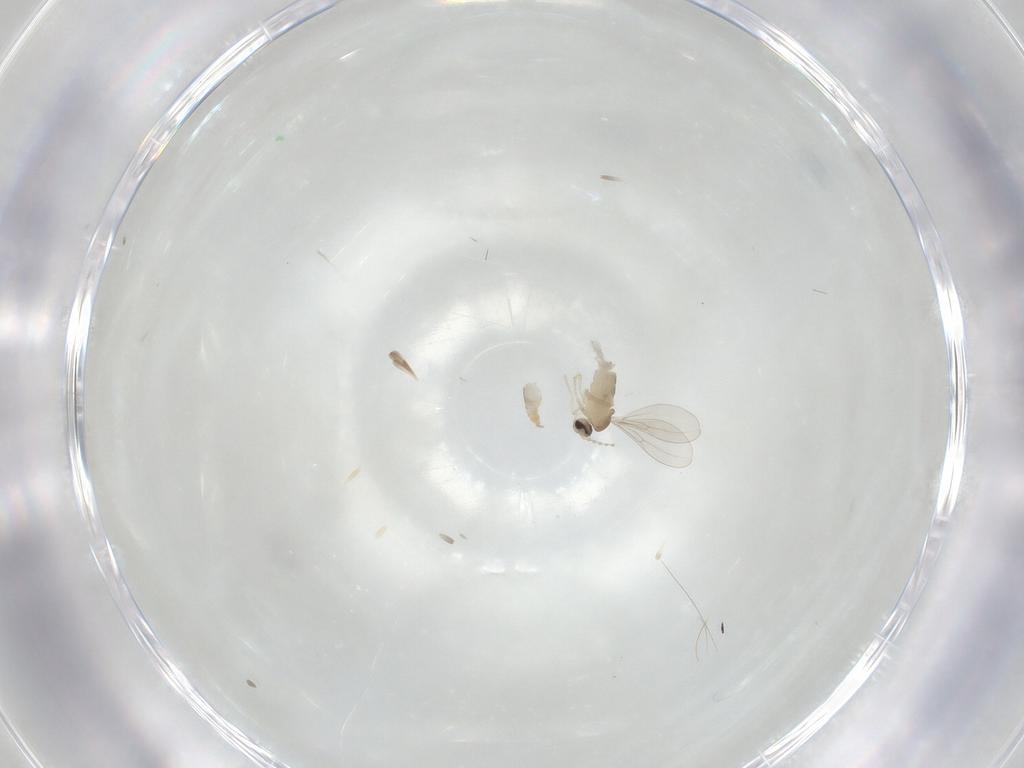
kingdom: Animalia
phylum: Arthropoda
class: Insecta
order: Diptera
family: Cecidomyiidae
